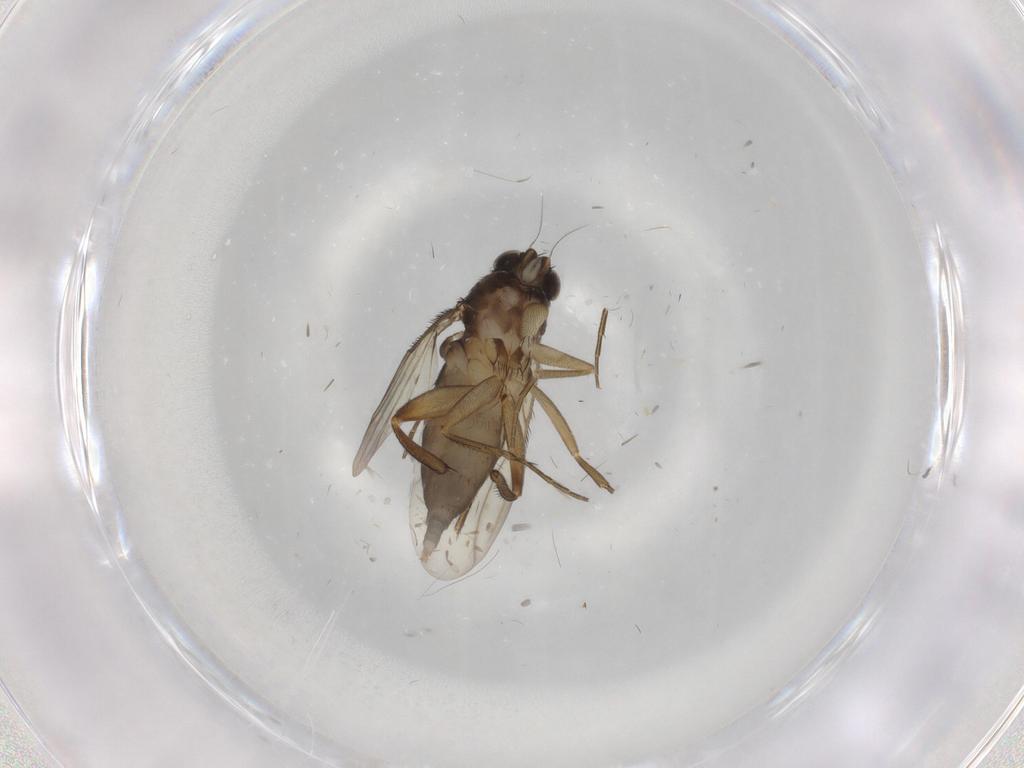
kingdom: Animalia
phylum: Arthropoda
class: Insecta
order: Diptera
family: Phoridae
